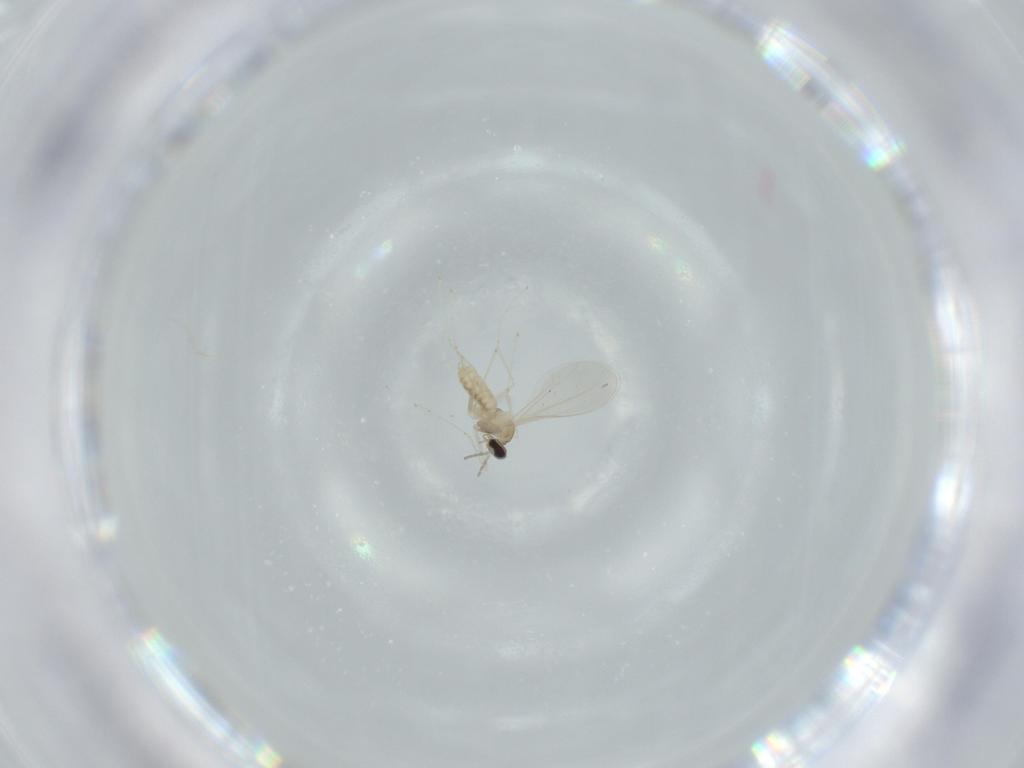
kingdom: Animalia
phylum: Arthropoda
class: Insecta
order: Diptera
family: Cecidomyiidae
